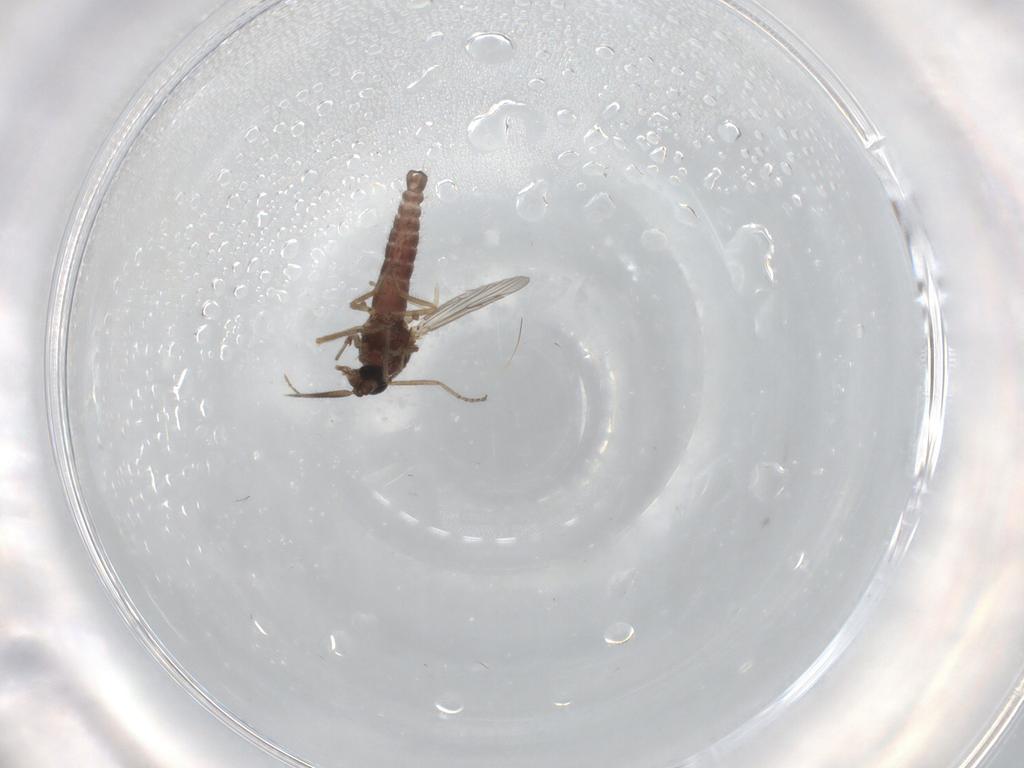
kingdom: Animalia
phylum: Arthropoda
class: Insecta
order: Diptera
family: Ceratopogonidae
